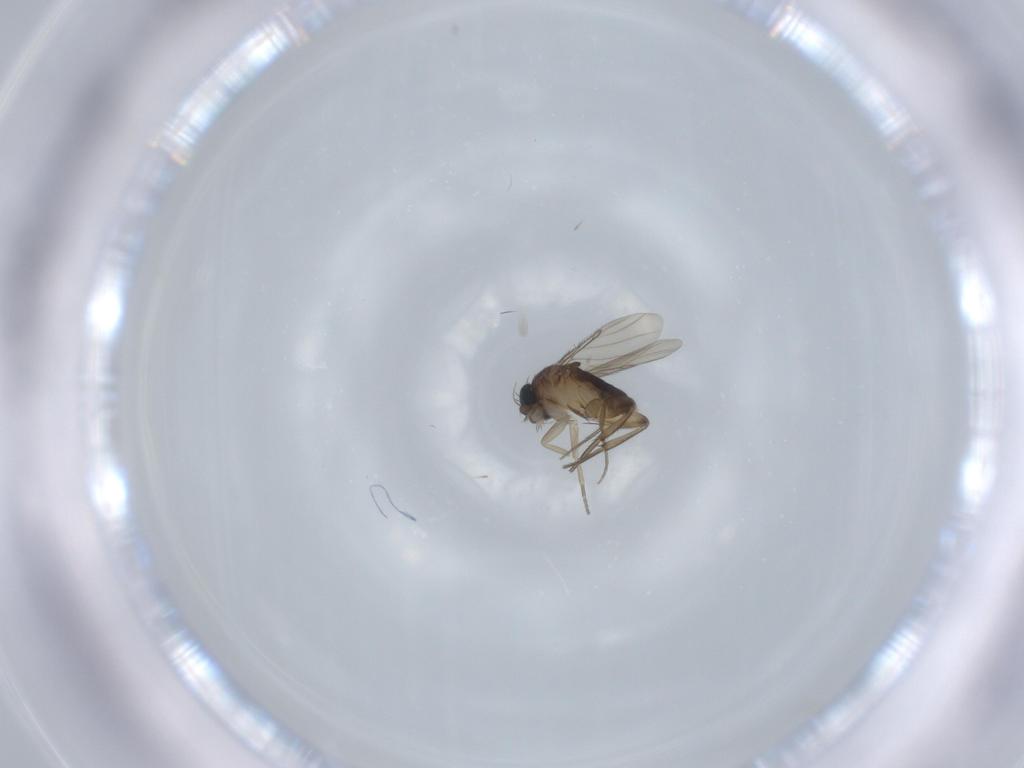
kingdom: Animalia
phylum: Arthropoda
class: Insecta
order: Diptera
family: Phoridae
